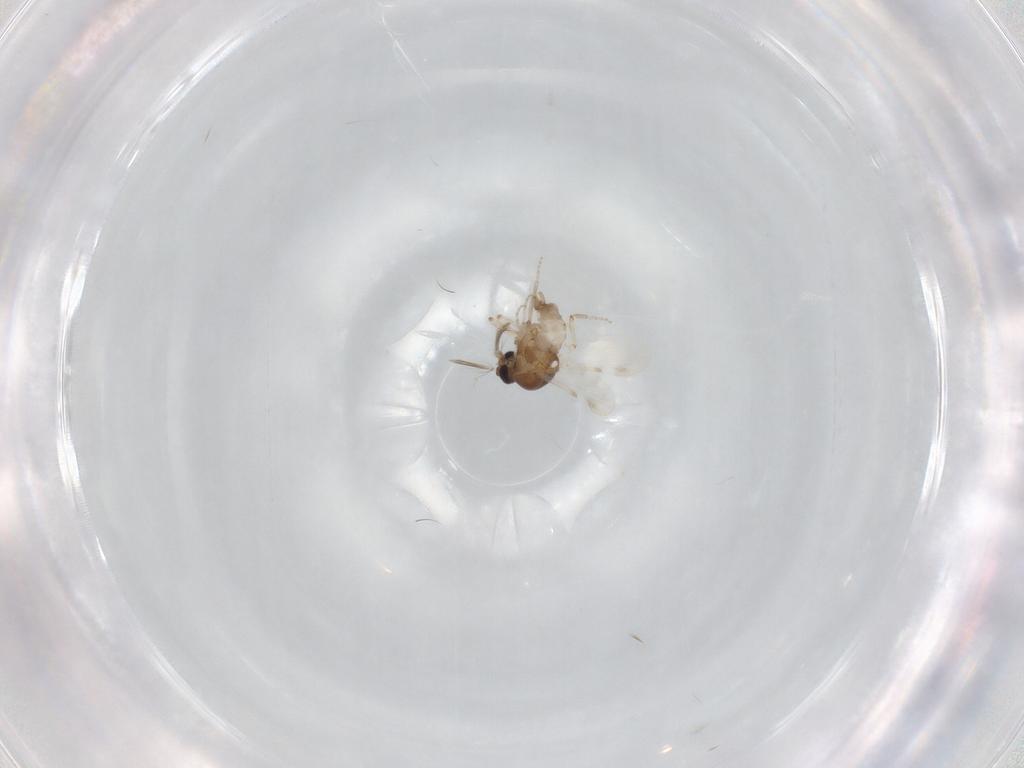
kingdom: Animalia
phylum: Arthropoda
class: Insecta
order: Diptera
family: Ceratopogonidae
